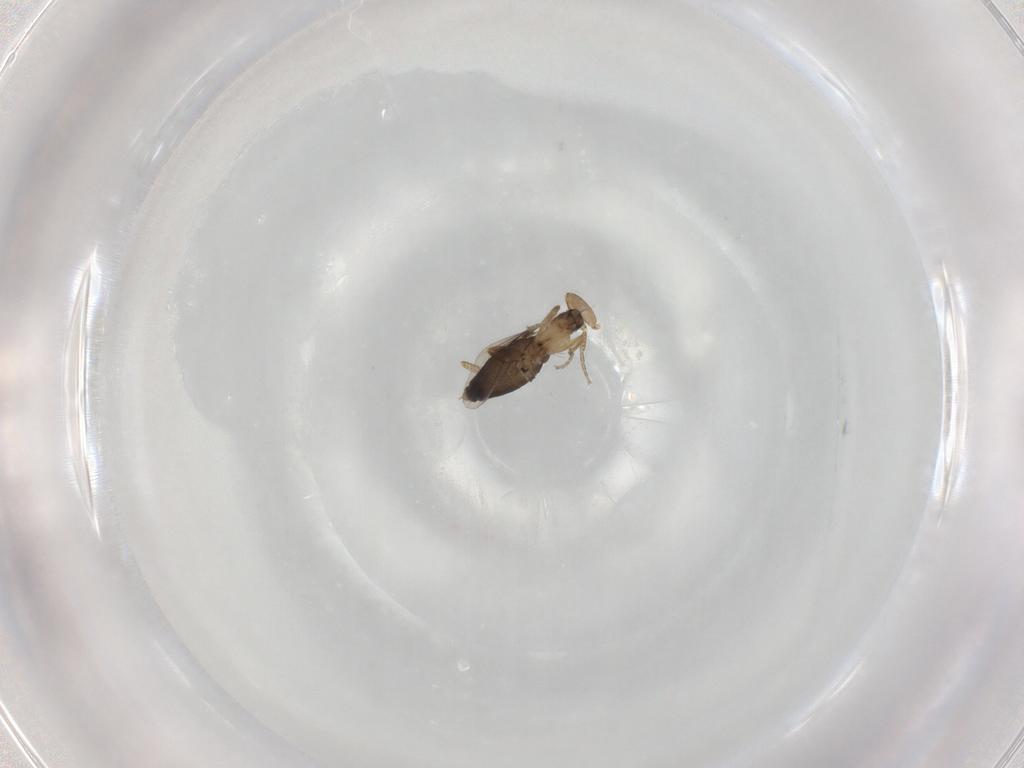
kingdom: Animalia
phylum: Arthropoda
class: Insecta
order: Diptera
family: Phoridae
